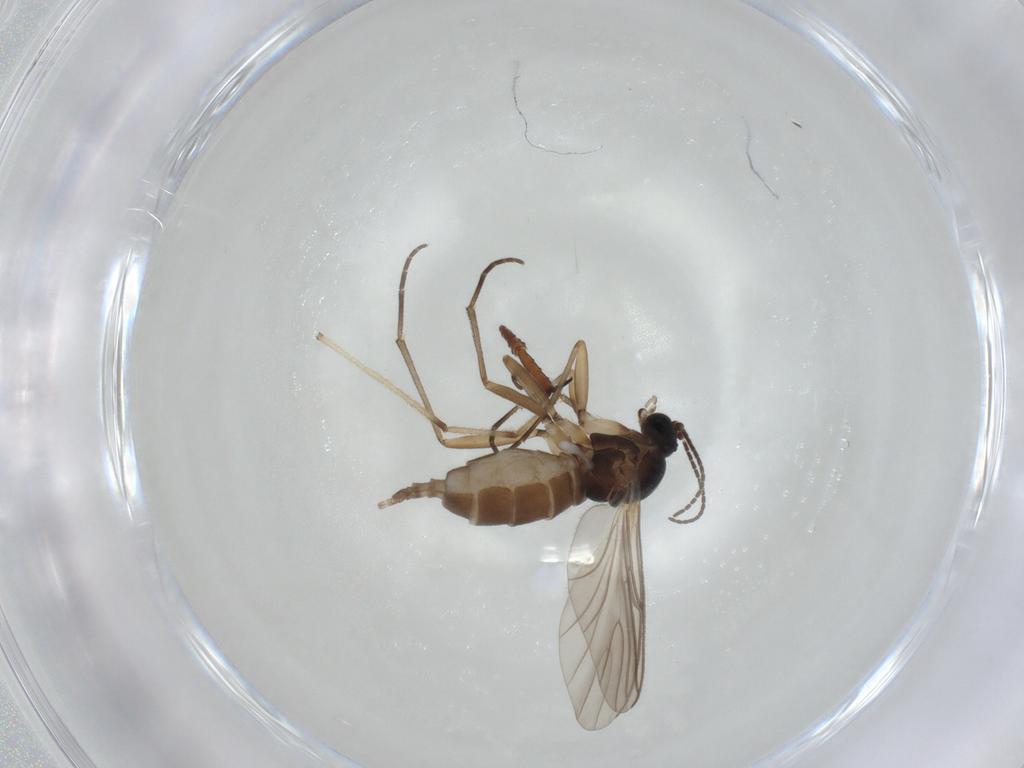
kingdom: Animalia
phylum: Arthropoda
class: Insecta
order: Diptera
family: Sciaridae
